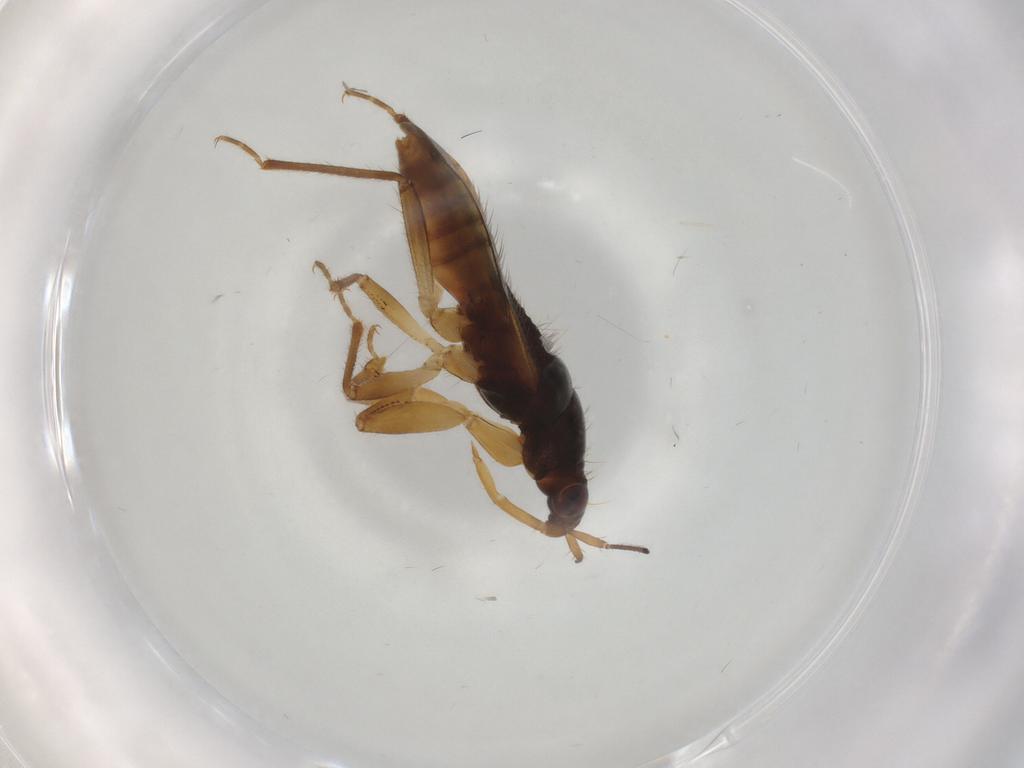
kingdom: Animalia
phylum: Arthropoda
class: Insecta
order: Hemiptera
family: Nabidae
